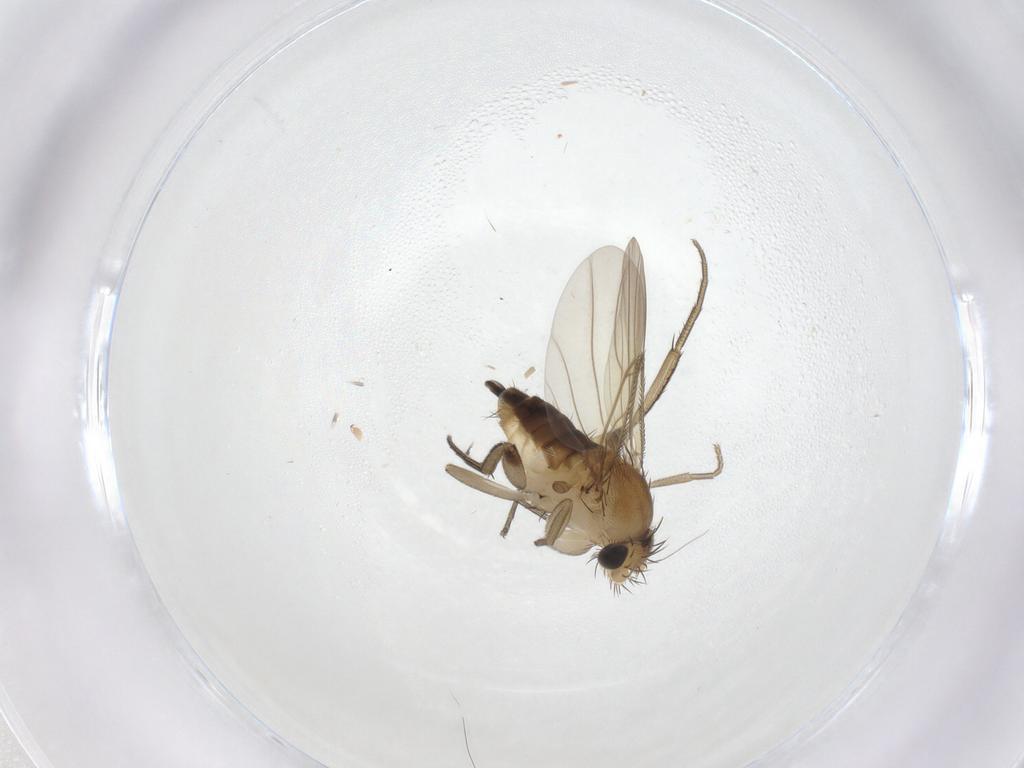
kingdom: Animalia
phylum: Arthropoda
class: Insecta
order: Diptera
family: Phoridae
